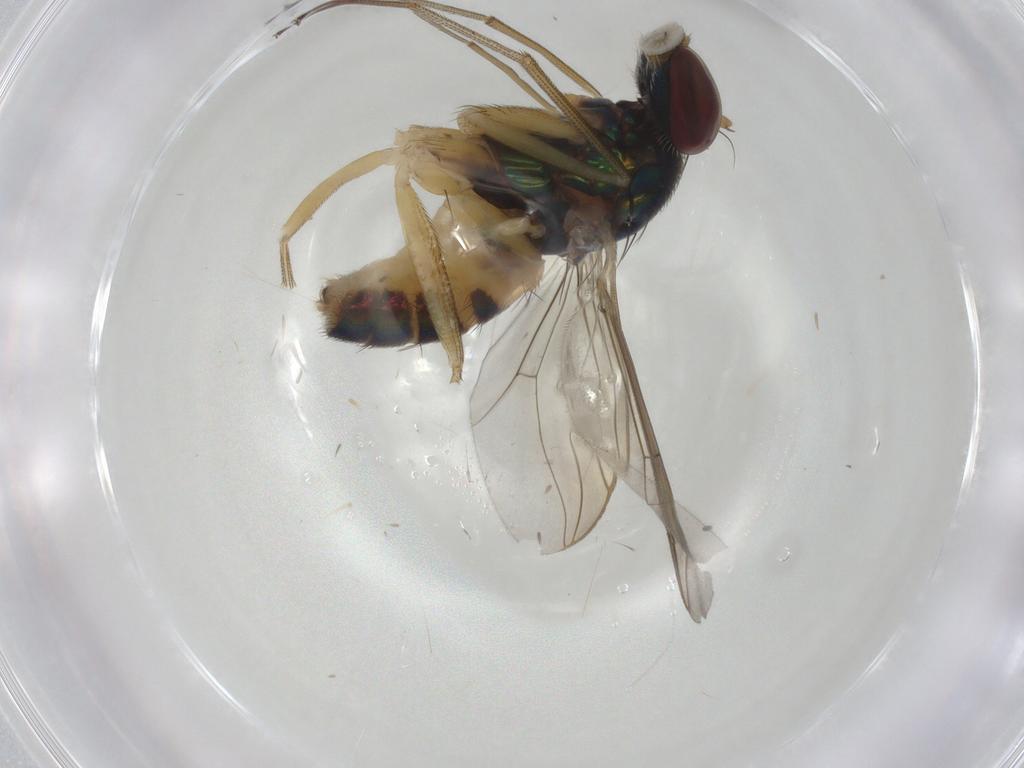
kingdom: Animalia
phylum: Arthropoda
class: Insecta
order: Diptera
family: Dolichopodidae
